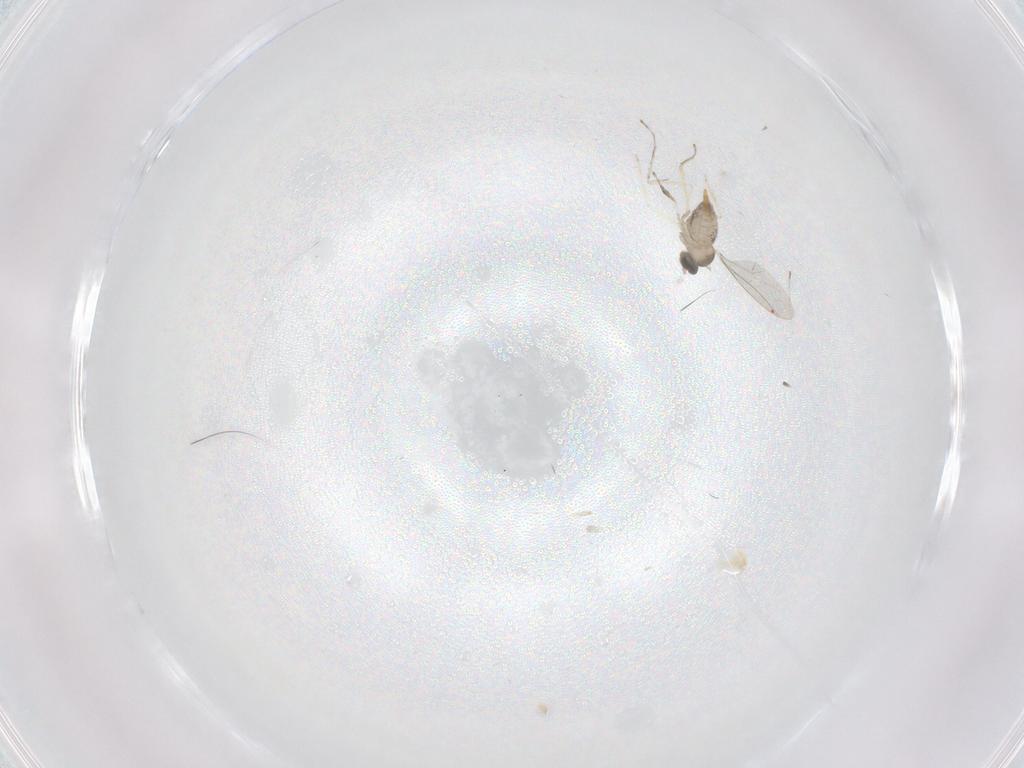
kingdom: Animalia
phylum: Arthropoda
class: Insecta
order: Diptera
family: Cecidomyiidae
